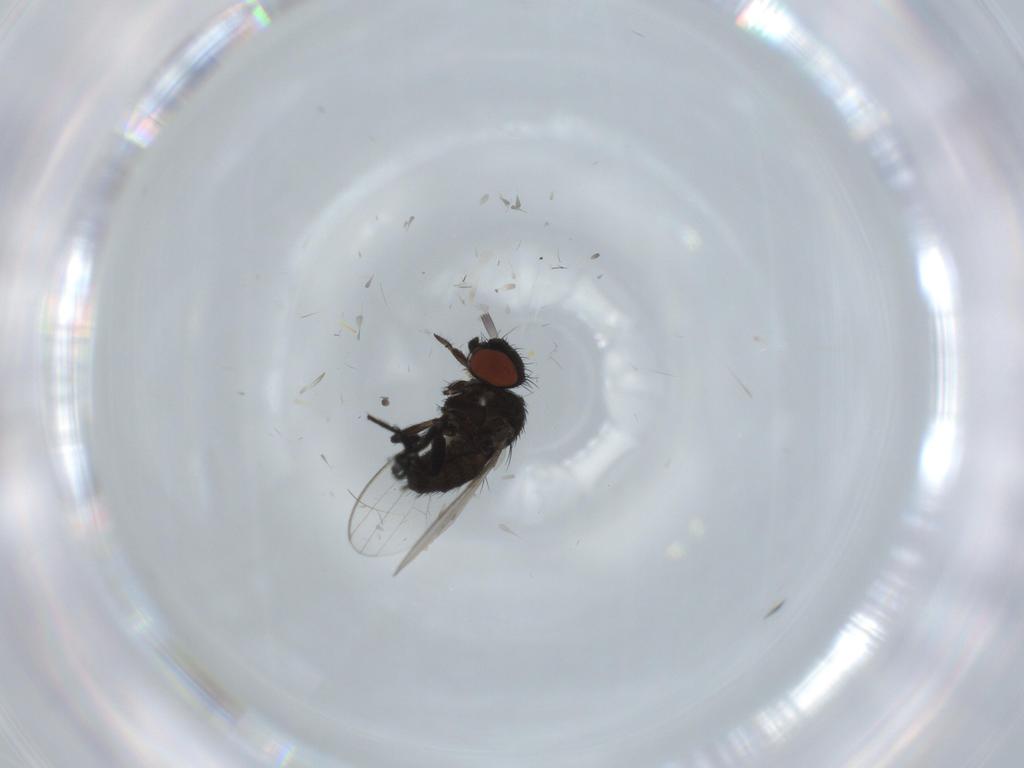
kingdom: Animalia
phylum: Arthropoda
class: Insecta
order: Diptera
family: Milichiidae
